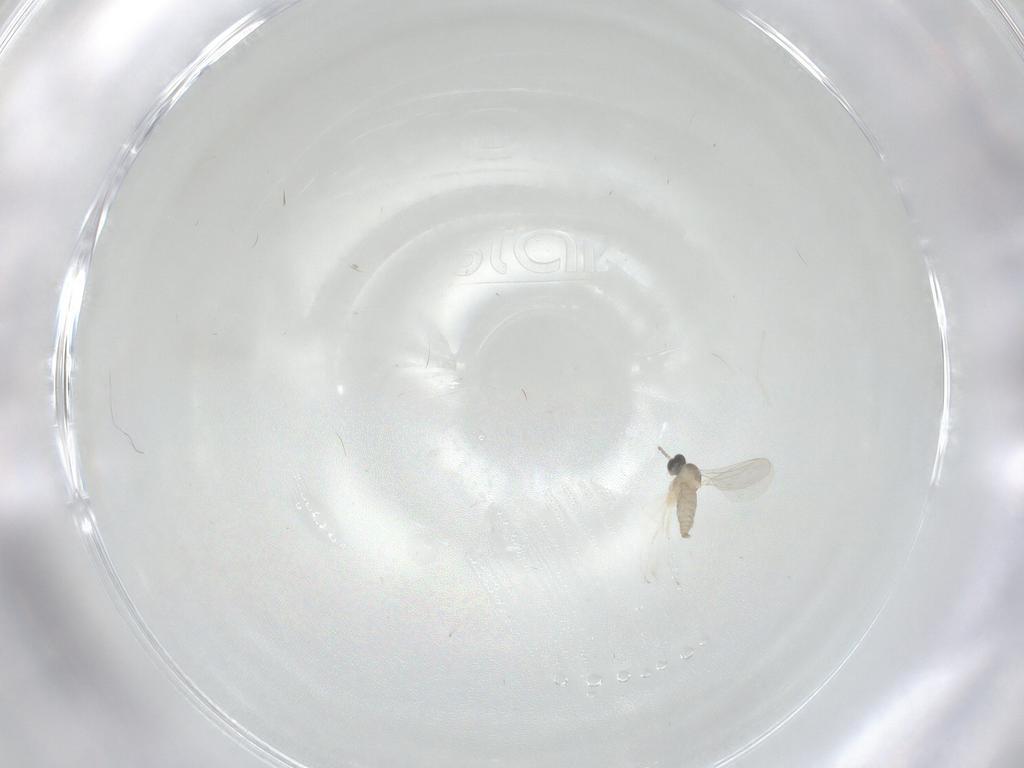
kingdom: Animalia
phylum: Arthropoda
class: Insecta
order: Diptera
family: Cecidomyiidae
